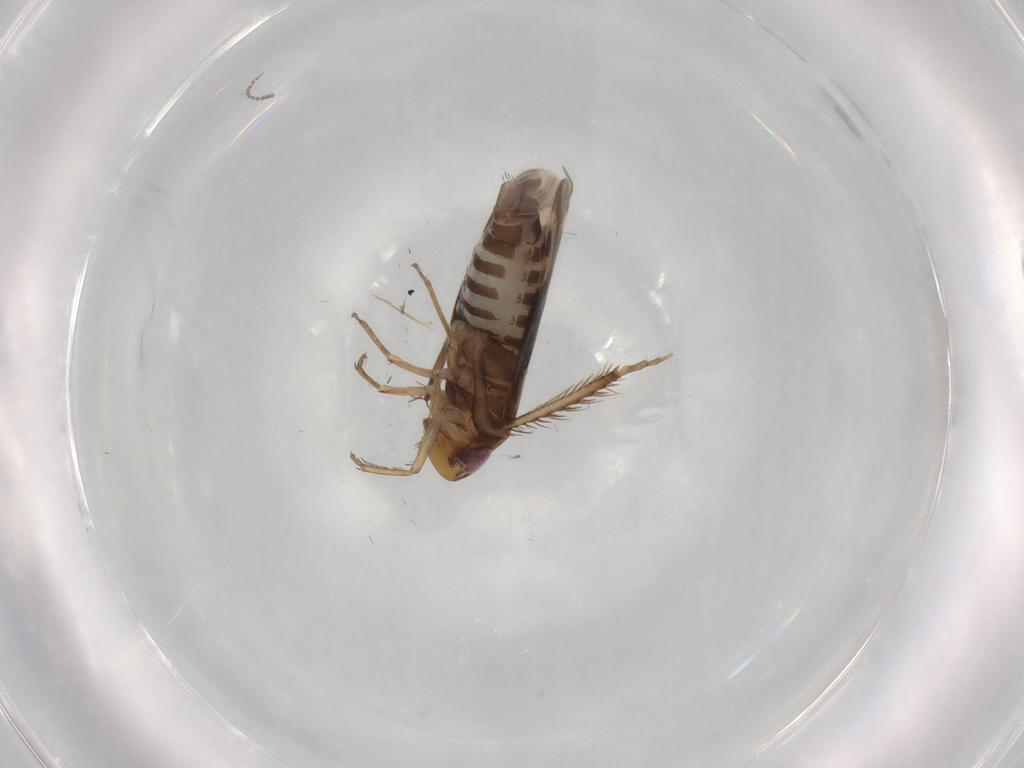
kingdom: Animalia
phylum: Arthropoda
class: Insecta
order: Hemiptera
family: Cicadellidae
